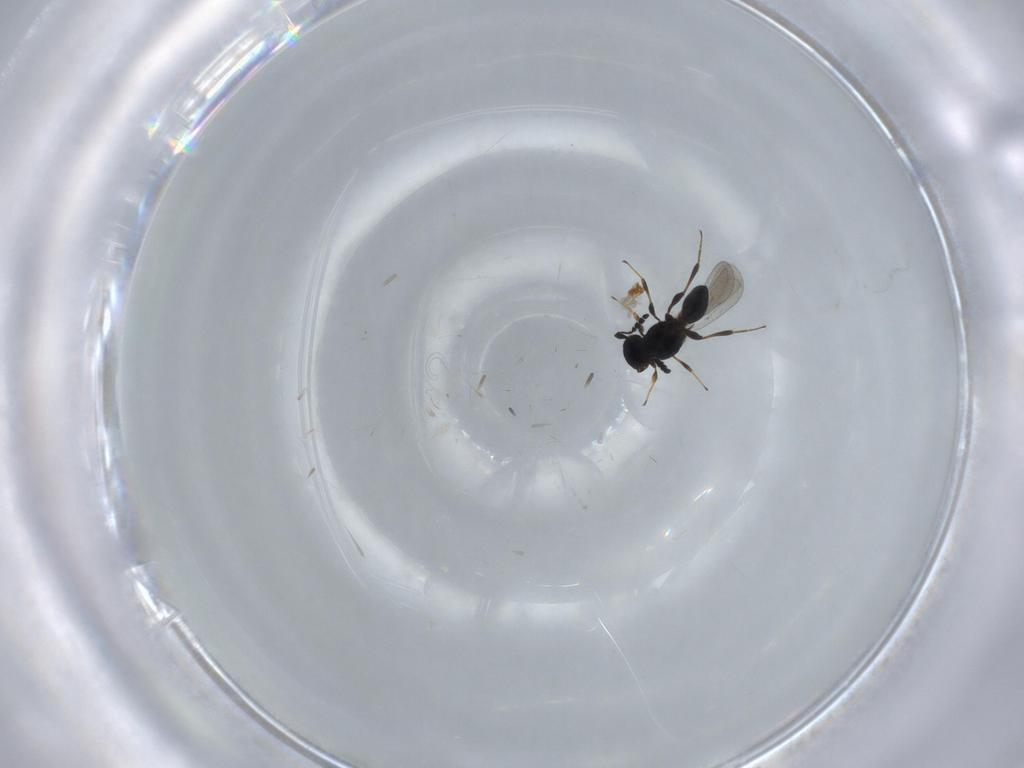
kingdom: Animalia
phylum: Arthropoda
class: Insecta
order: Hymenoptera
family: Platygastridae
